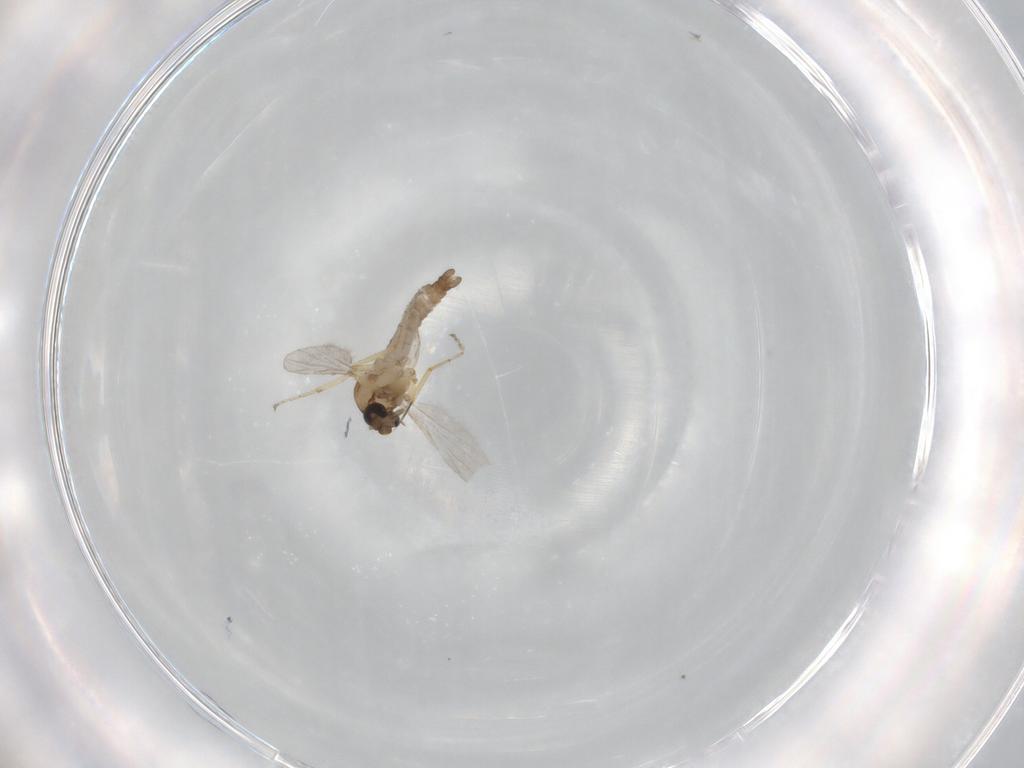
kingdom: Animalia
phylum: Arthropoda
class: Insecta
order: Diptera
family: Ceratopogonidae
